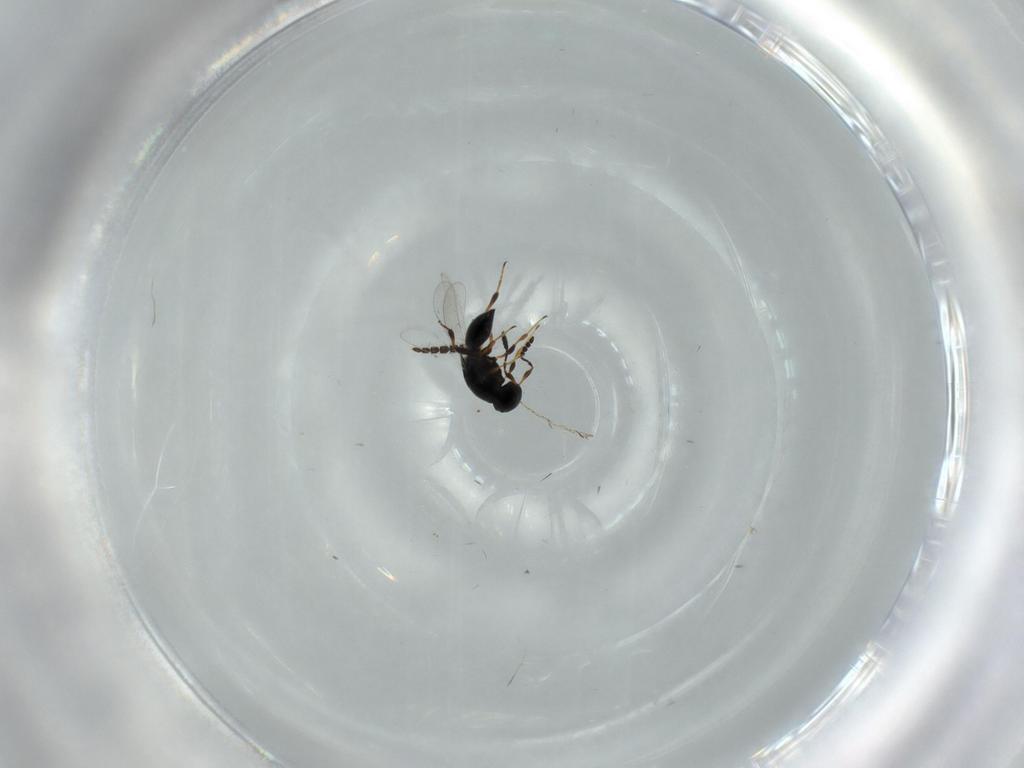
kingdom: Animalia
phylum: Arthropoda
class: Insecta
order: Hymenoptera
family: Braconidae
